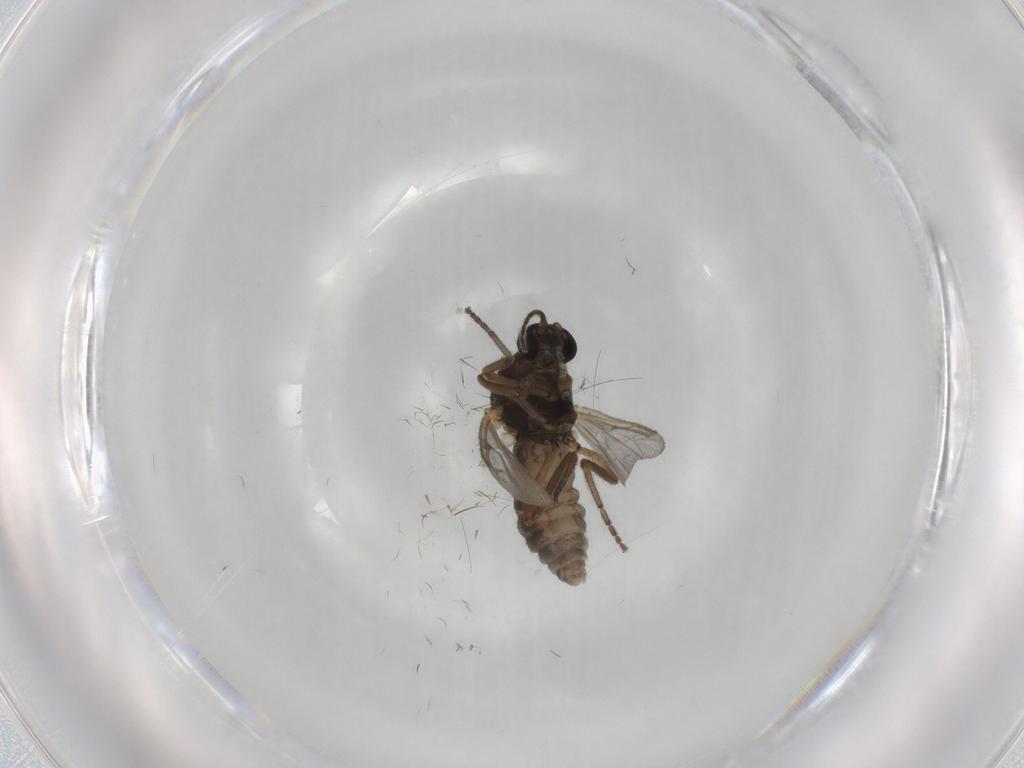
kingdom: Animalia
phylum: Arthropoda
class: Insecta
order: Diptera
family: Ceratopogonidae
